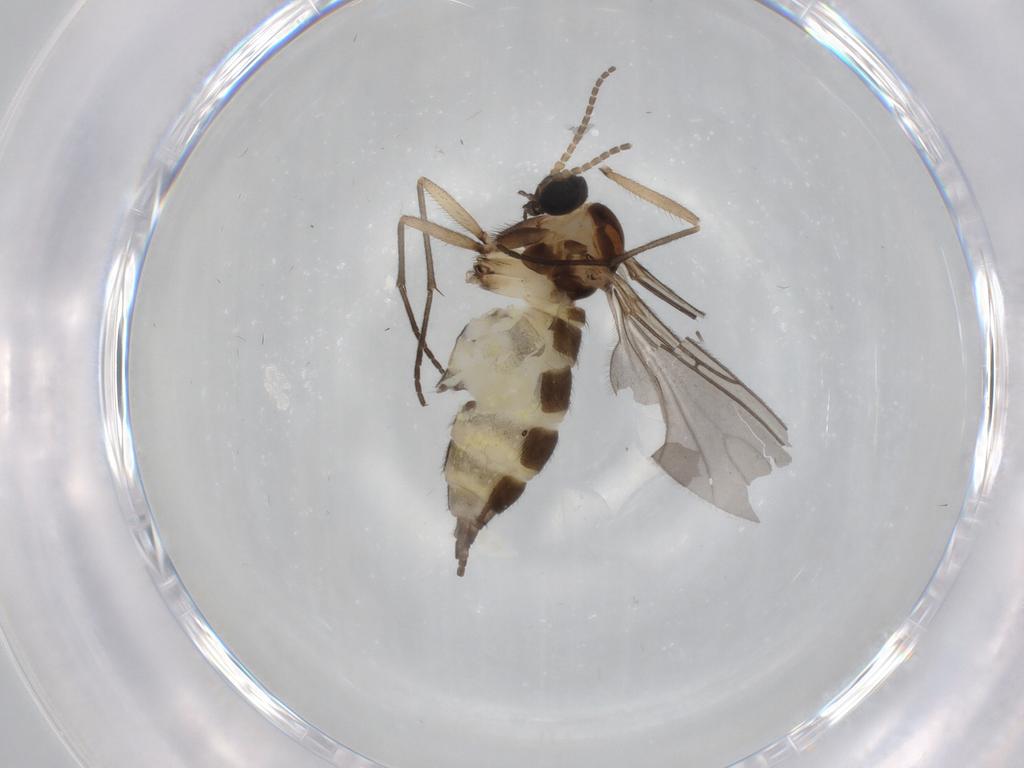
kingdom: Animalia
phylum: Arthropoda
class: Insecta
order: Diptera
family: Sciaridae
